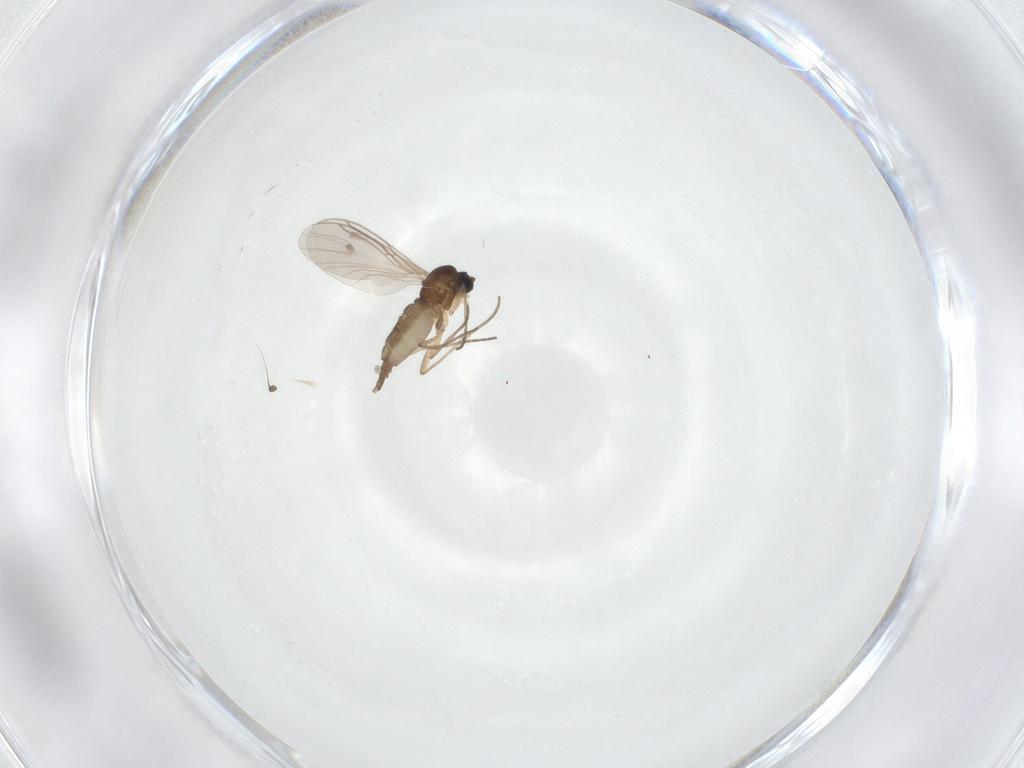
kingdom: Animalia
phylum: Arthropoda
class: Insecta
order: Diptera
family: Sciaridae
